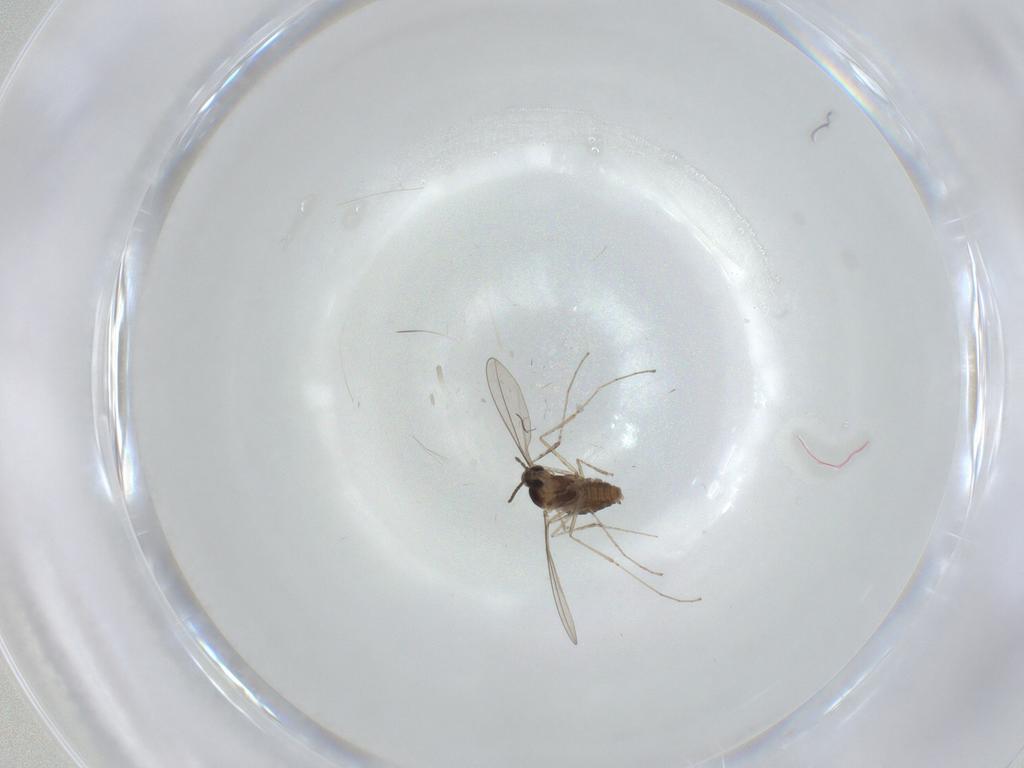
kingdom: Animalia
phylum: Arthropoda
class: Insecta
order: Diptera
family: Cecidomyiidae
